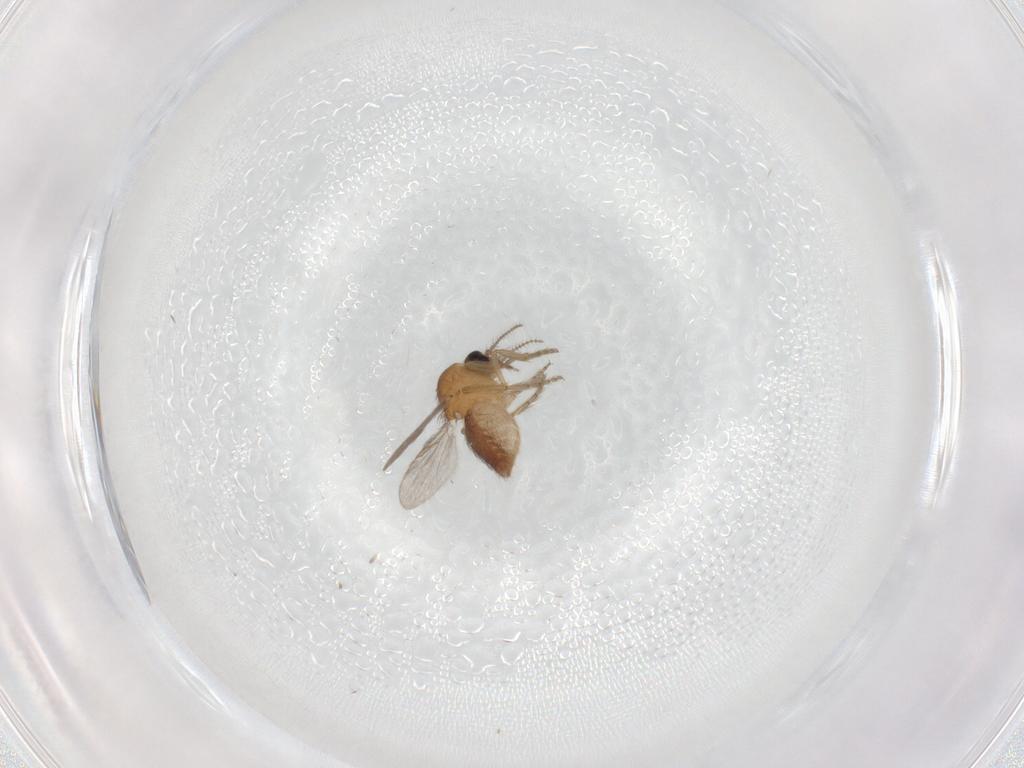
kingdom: Animalia
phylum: Arthropoda
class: Insecta
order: Diptera
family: Ceratopogonidae
